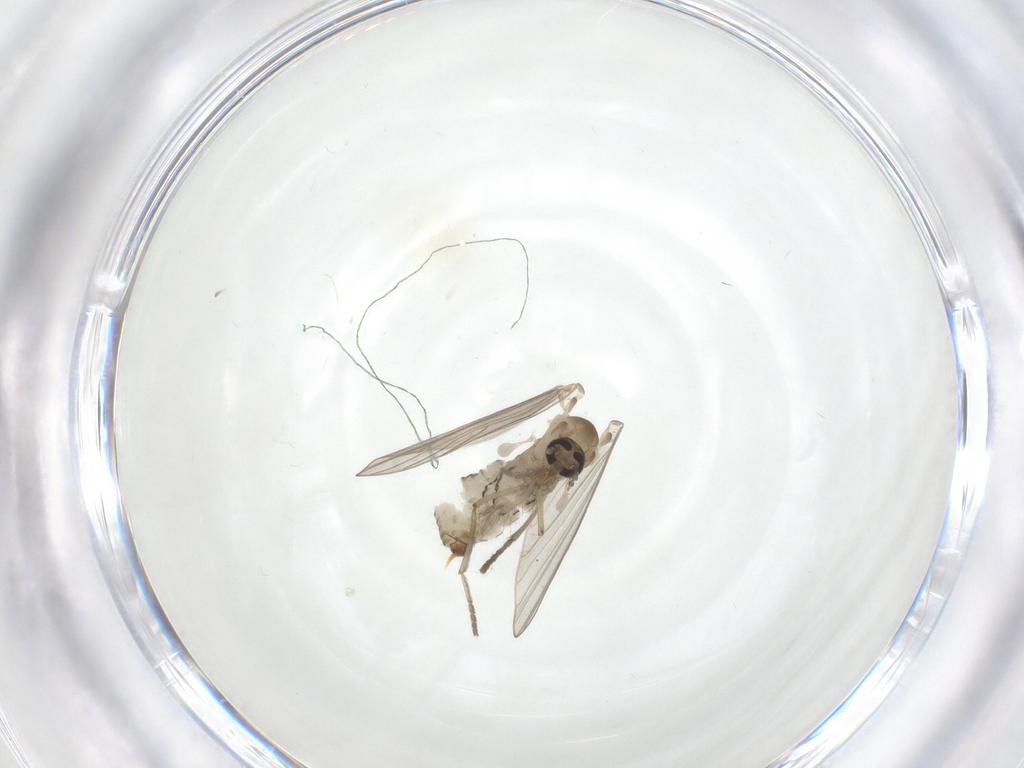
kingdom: Animalia
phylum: Arthropoda
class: Insecta
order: Diptera
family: Psychodidae
